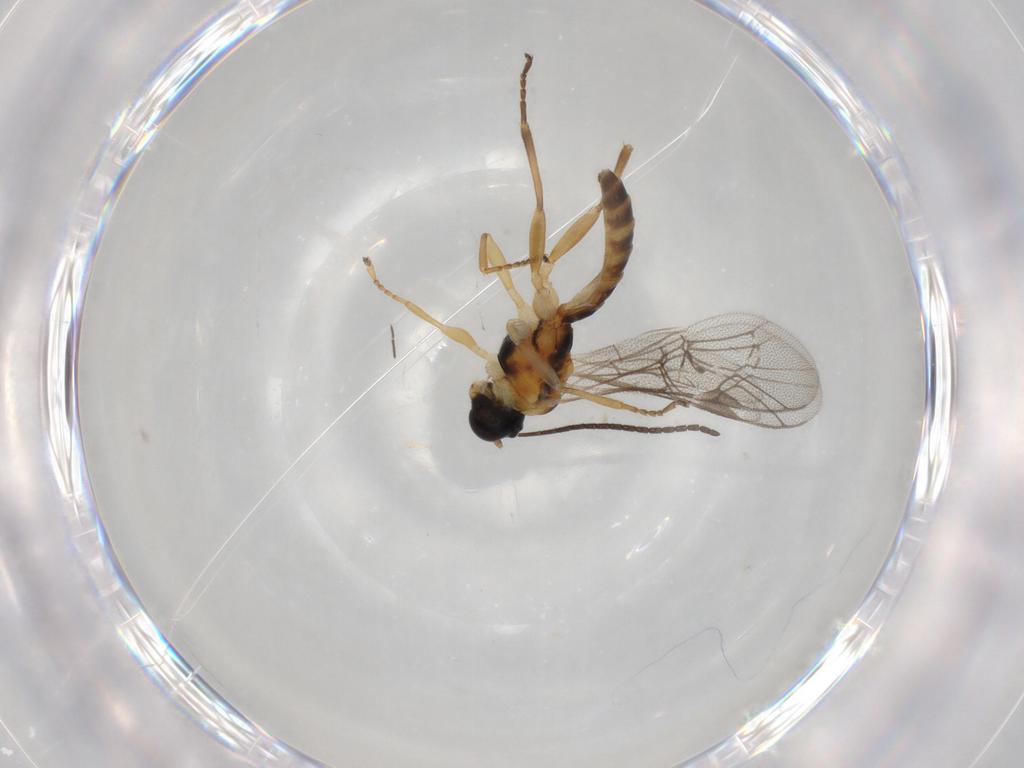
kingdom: Animalia
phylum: Arthropoda
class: Insecta
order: Hymenoptera
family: Ichneumonidae
